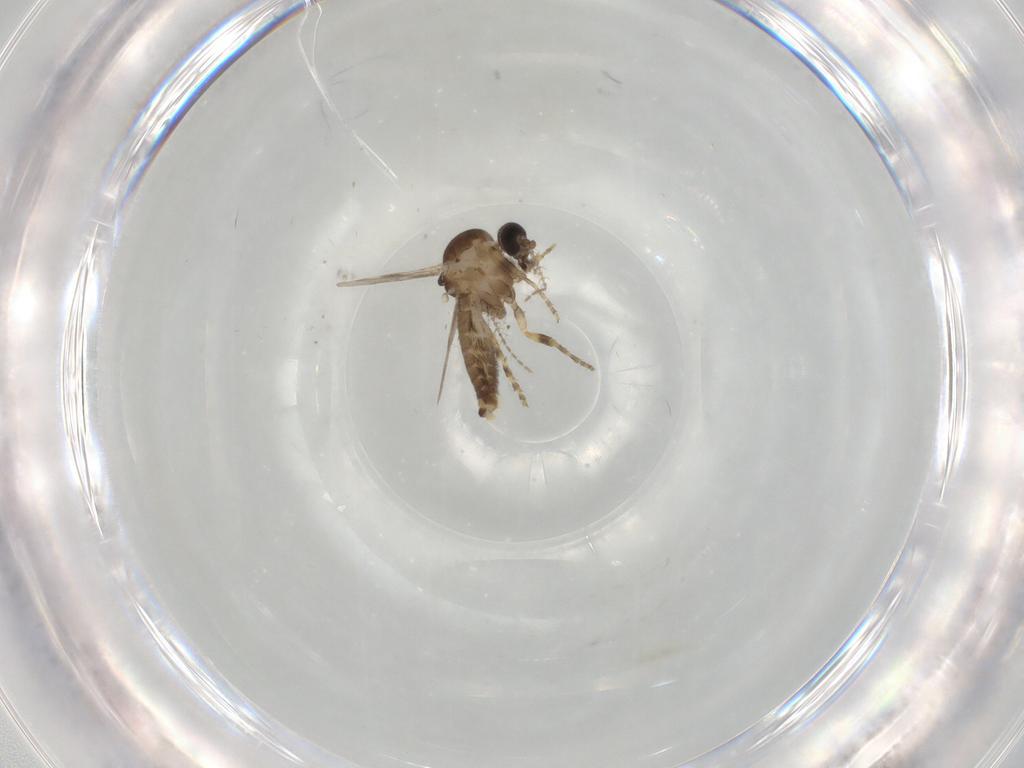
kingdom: Animalia
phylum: Arthropoda
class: Insecta
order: Diptera
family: Ceratopogonidae
